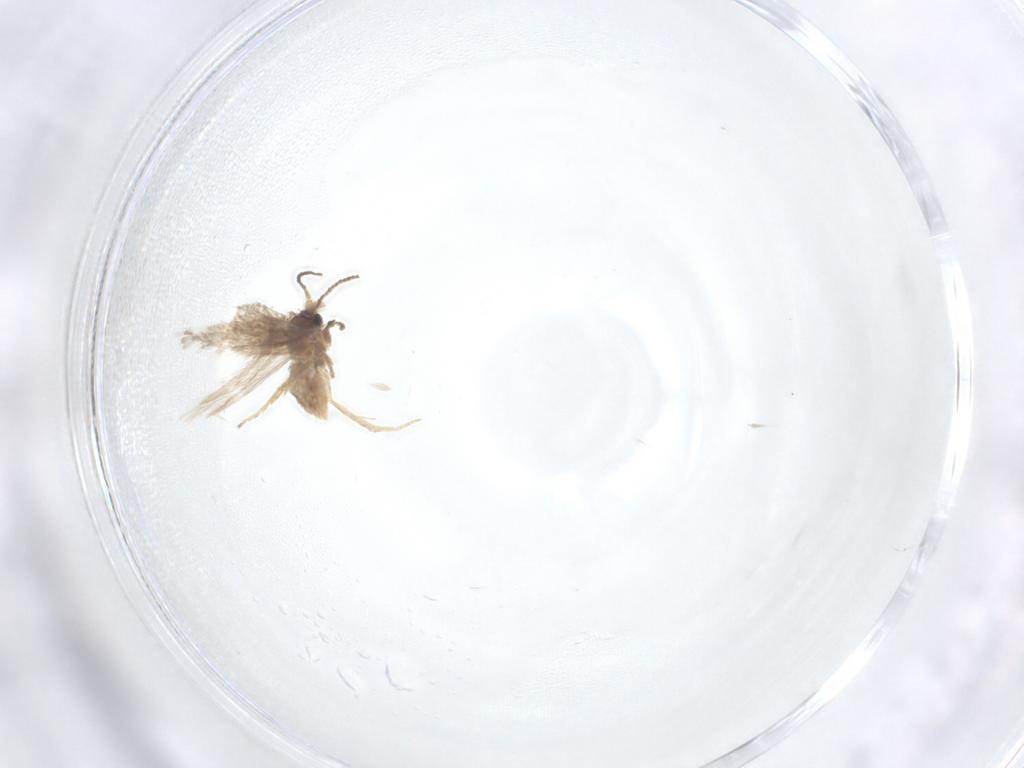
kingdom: Animalia
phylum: Arthropoda
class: Insecta
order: Lepidoptera
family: Nepticulidae
